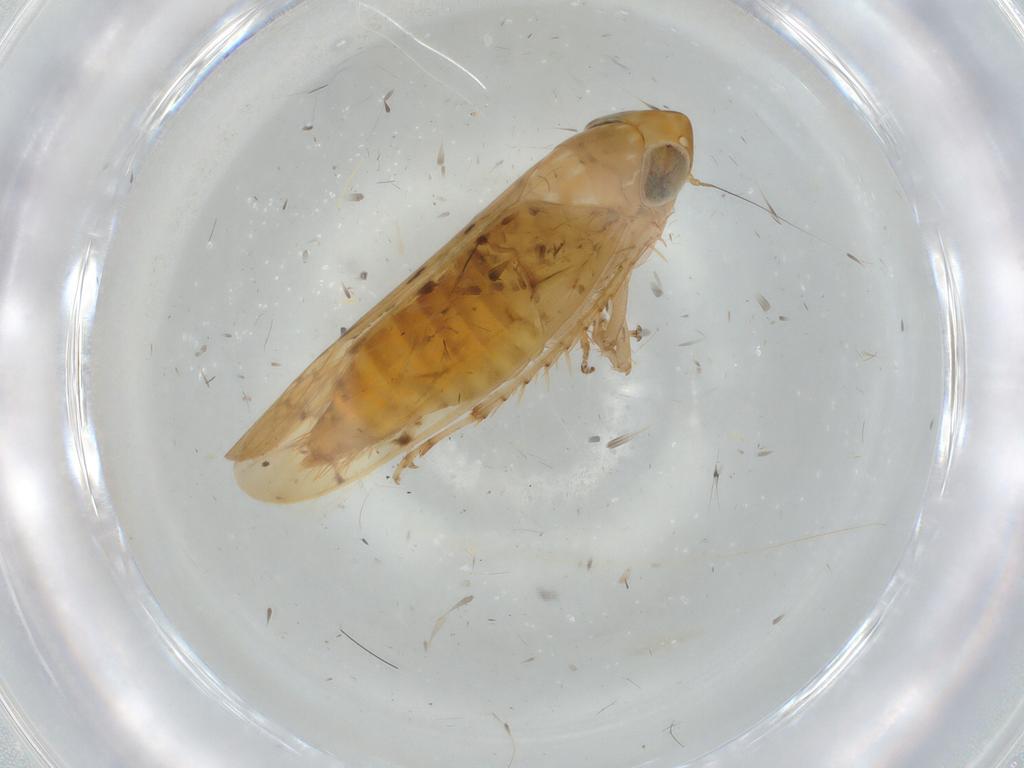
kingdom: Animalia
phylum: Arthropoda
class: Insecta
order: Hemiptera
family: Cicadellidae
